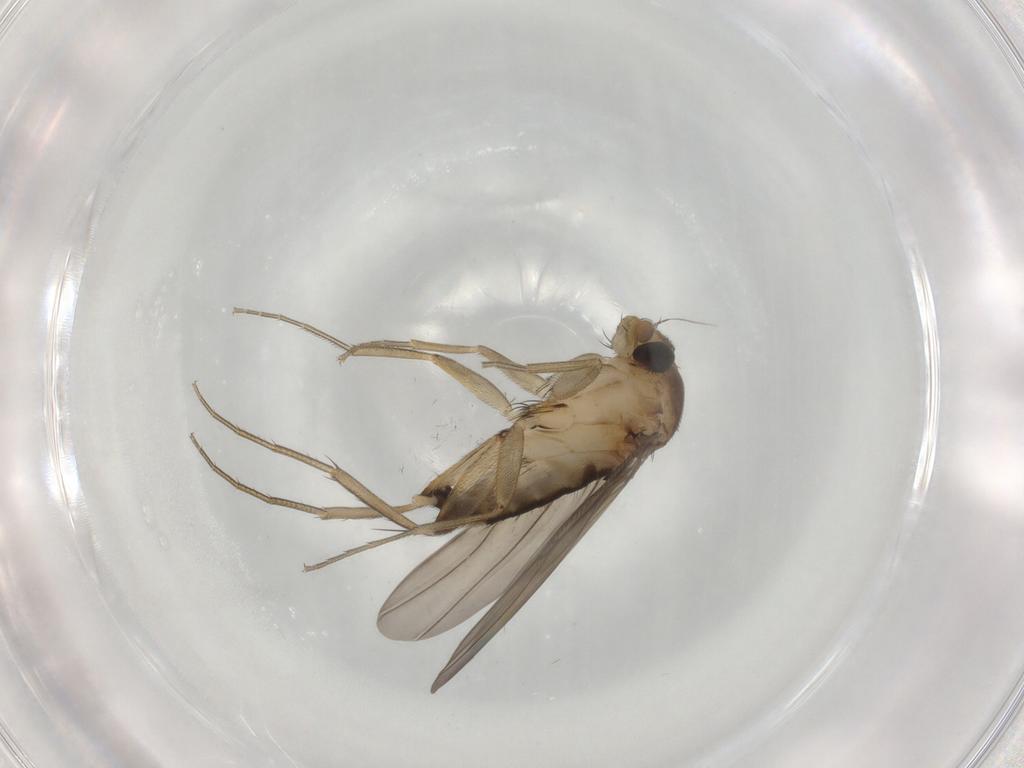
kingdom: Animalia
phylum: Arthropoda
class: Insecta
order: Diptera
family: Phoridae
